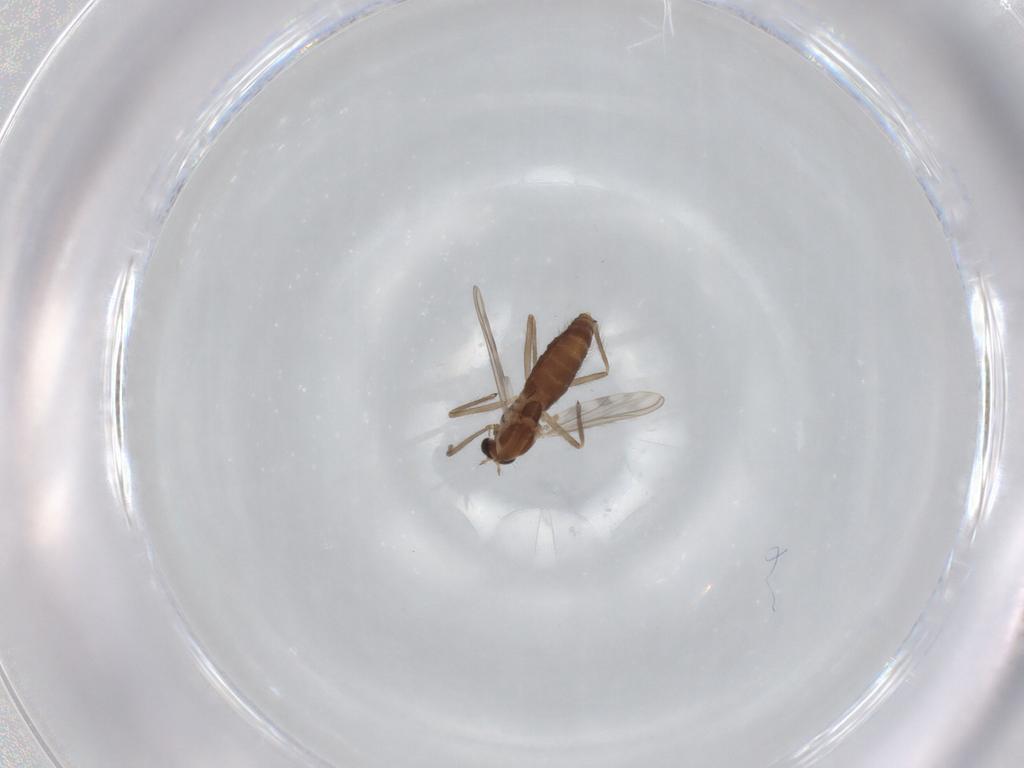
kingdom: Animalia
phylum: Arthropoda
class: Insecta
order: Diptera
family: Chironomidae
